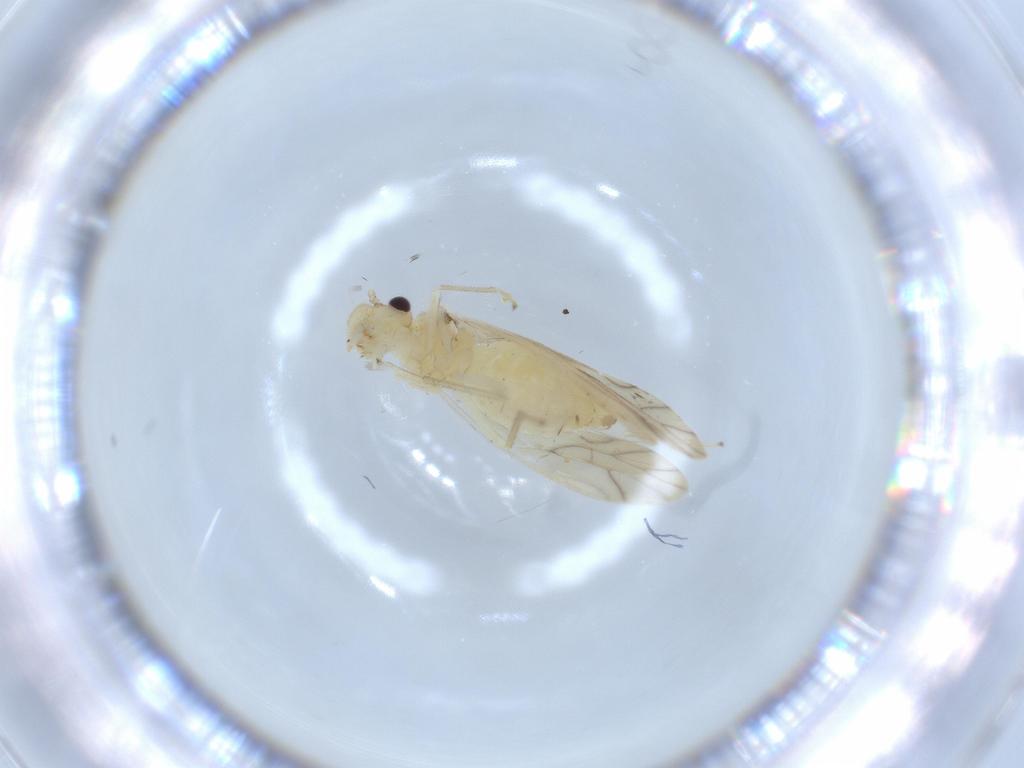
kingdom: Animalia
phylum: Arthropoda
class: Insecta
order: Psocodea
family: Caeciliusidae
